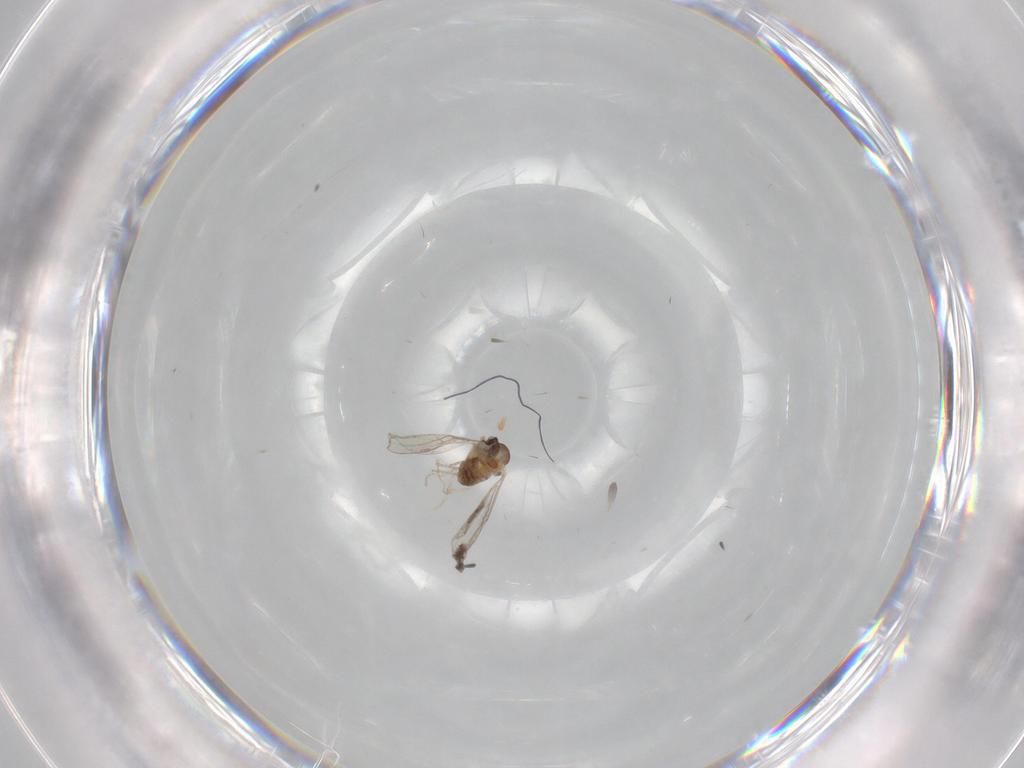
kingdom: Animalia
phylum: Arthropoda
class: Insecta
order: Diptera
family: Cecidomyiidae
